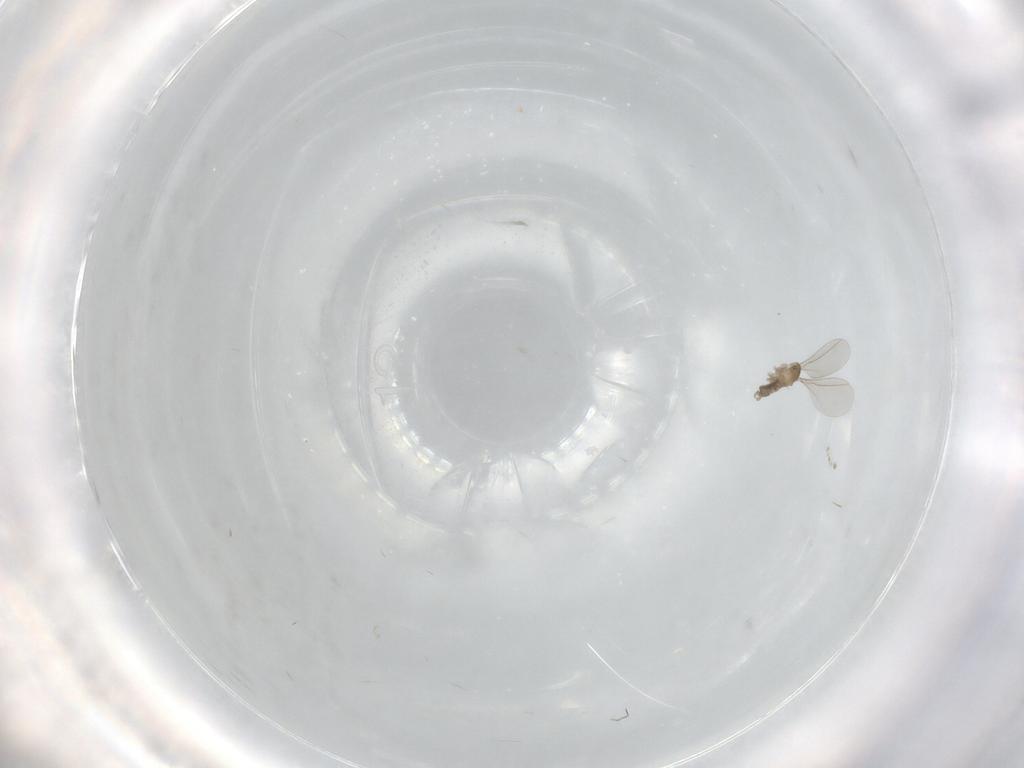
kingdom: Animalia
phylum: Arthropoda
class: Insecta
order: Diptera
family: Cecidomyiidae
